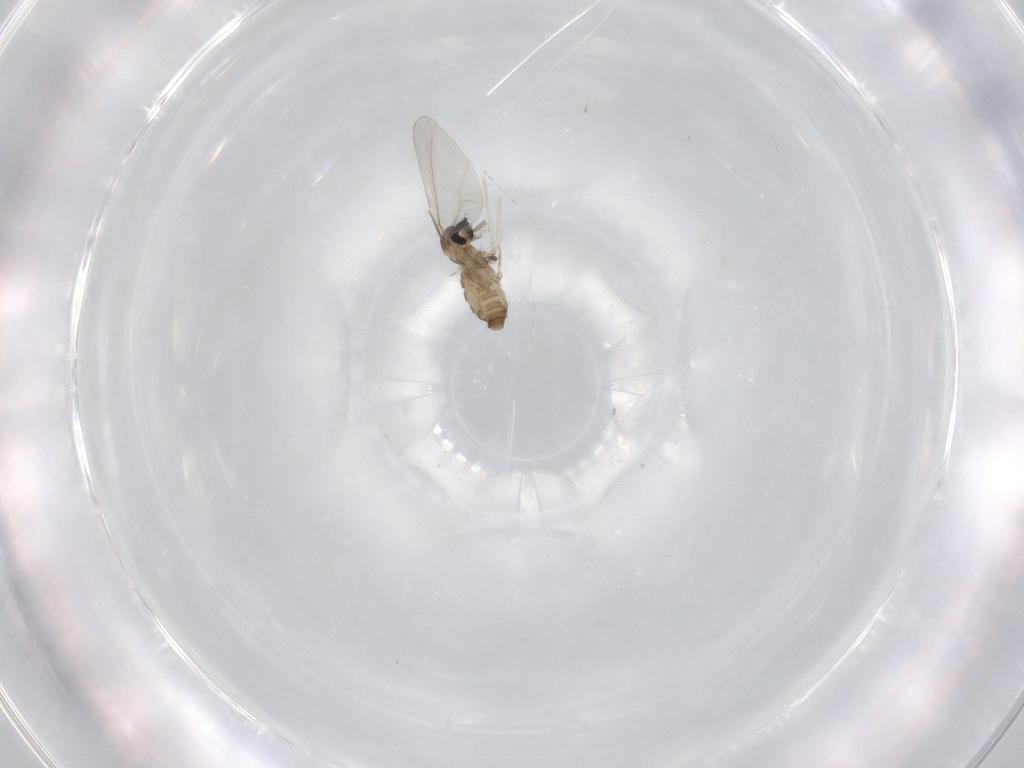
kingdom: Animalia
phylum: Arthropoda
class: Insecta
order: Diptera
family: Cecidomyiidae
